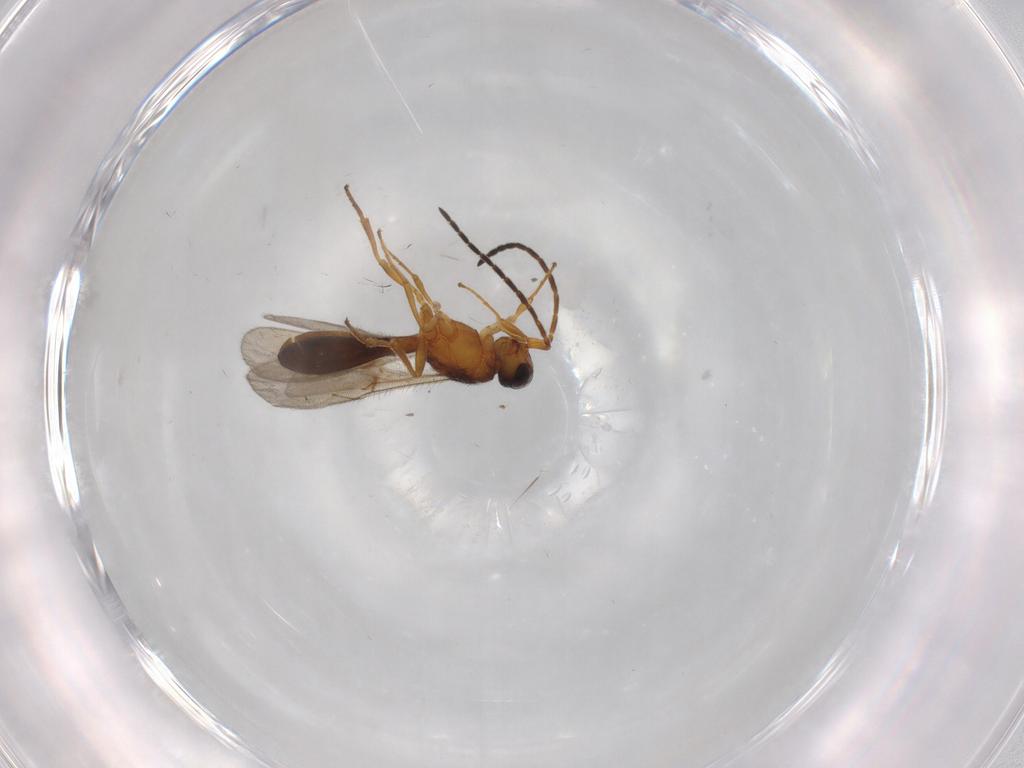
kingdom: Animalia
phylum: Arthropoda
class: Insecta
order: Hymenoptera
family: Scelionidae
